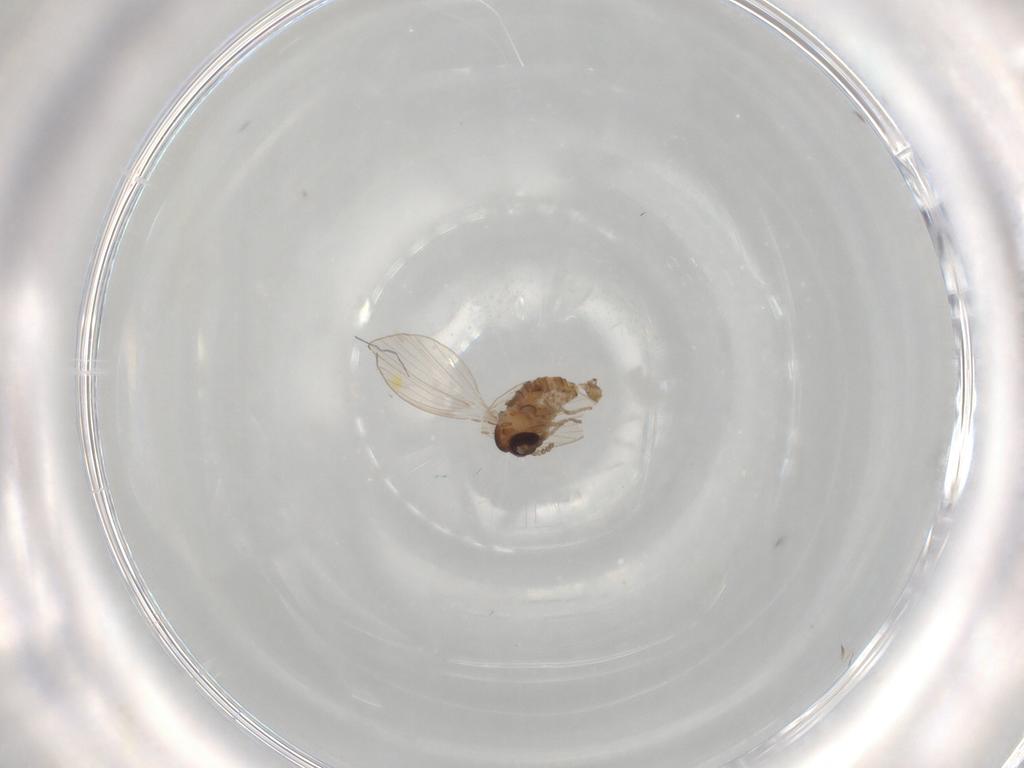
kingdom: Animalia
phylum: Arthropoda
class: Insecta
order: Diptera
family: Psychodidae
